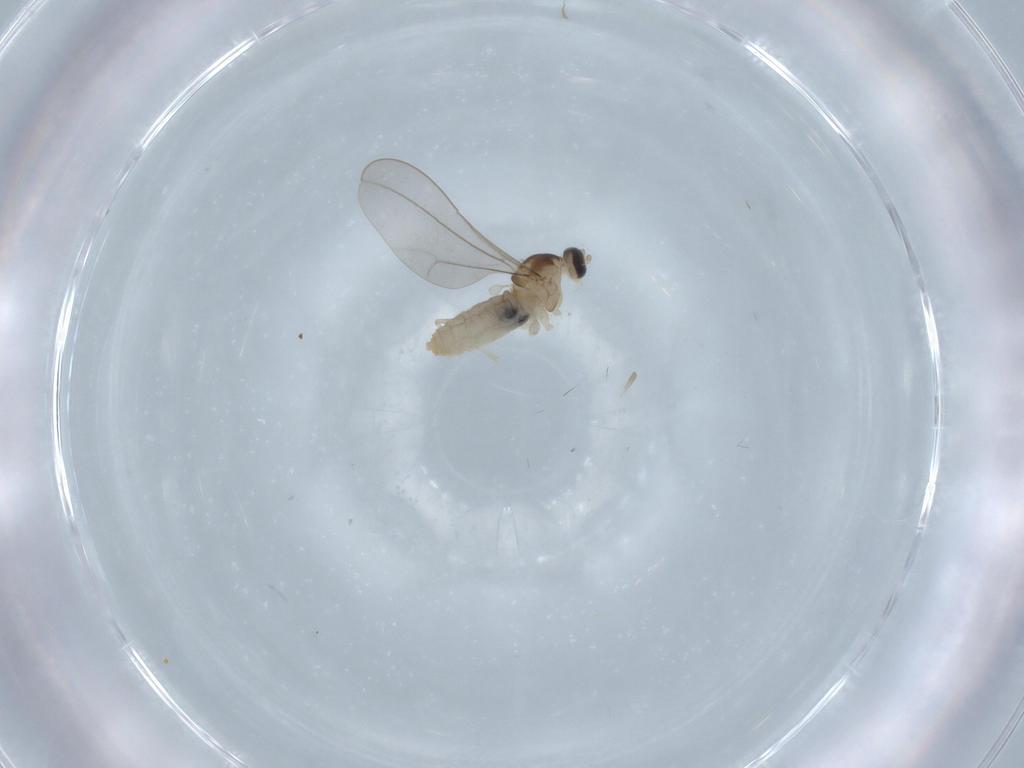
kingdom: Animalia
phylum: Arthropoda
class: Insecta
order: Diptera
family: Cecidomyiidae
